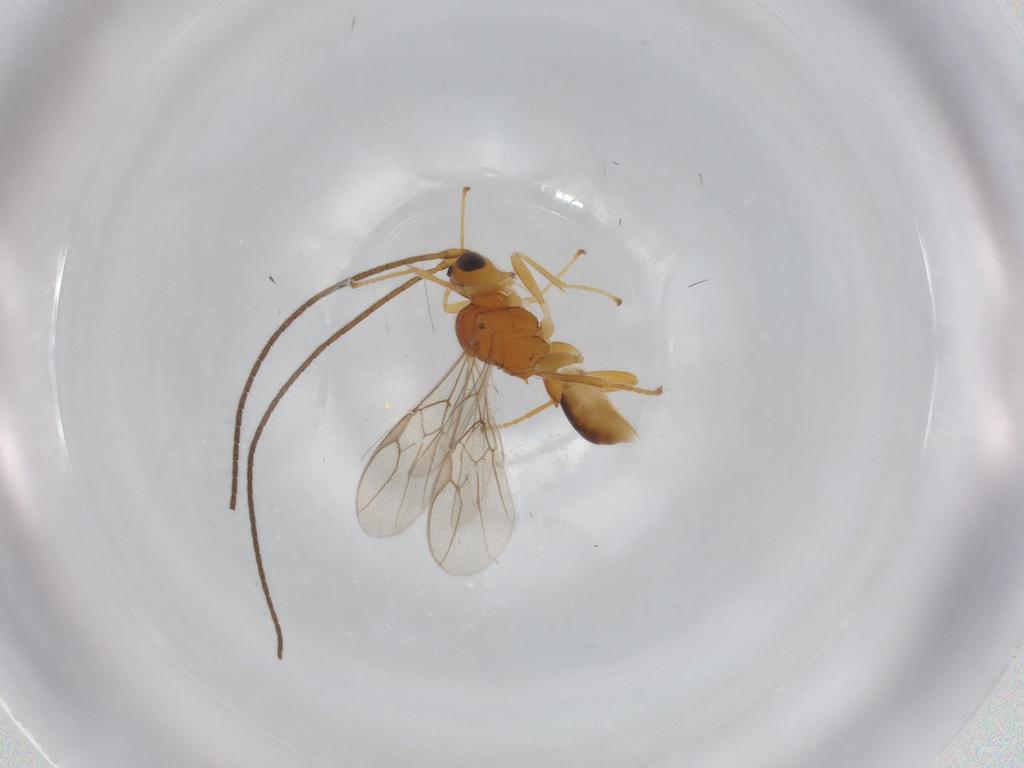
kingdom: Animalia
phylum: Arthropoda
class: Insecta
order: Hymenoptera
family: Braconidae
